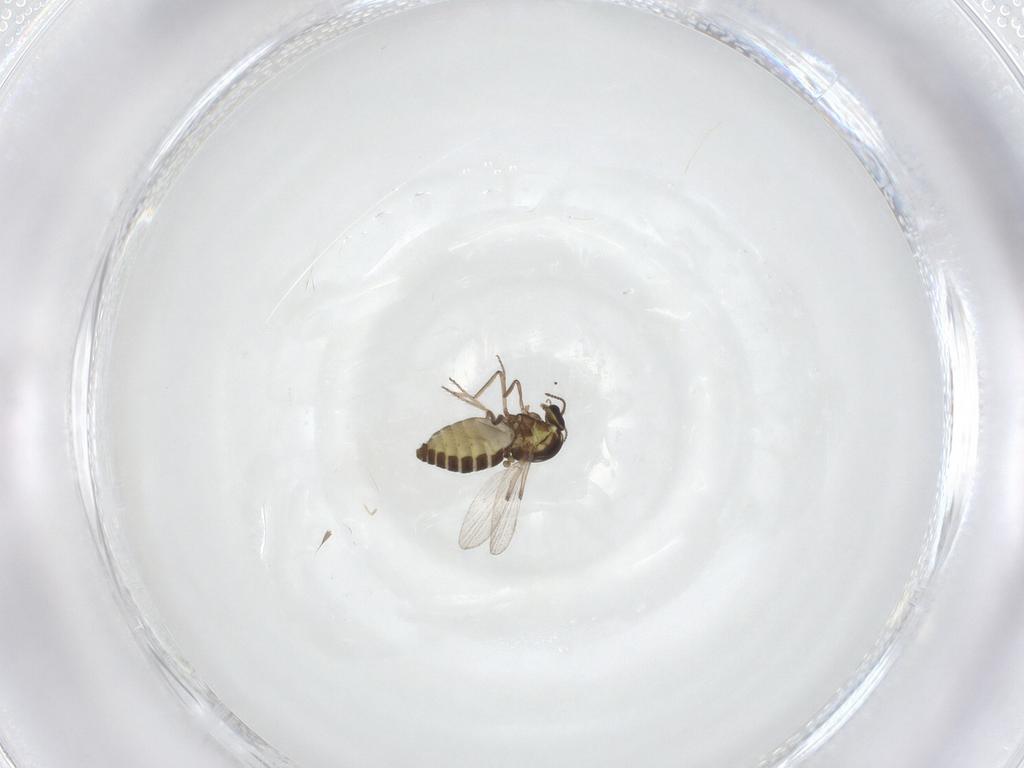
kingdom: Animalia
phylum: Arthropoda
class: Insecta
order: Diptera
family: Ceratopogonidae
